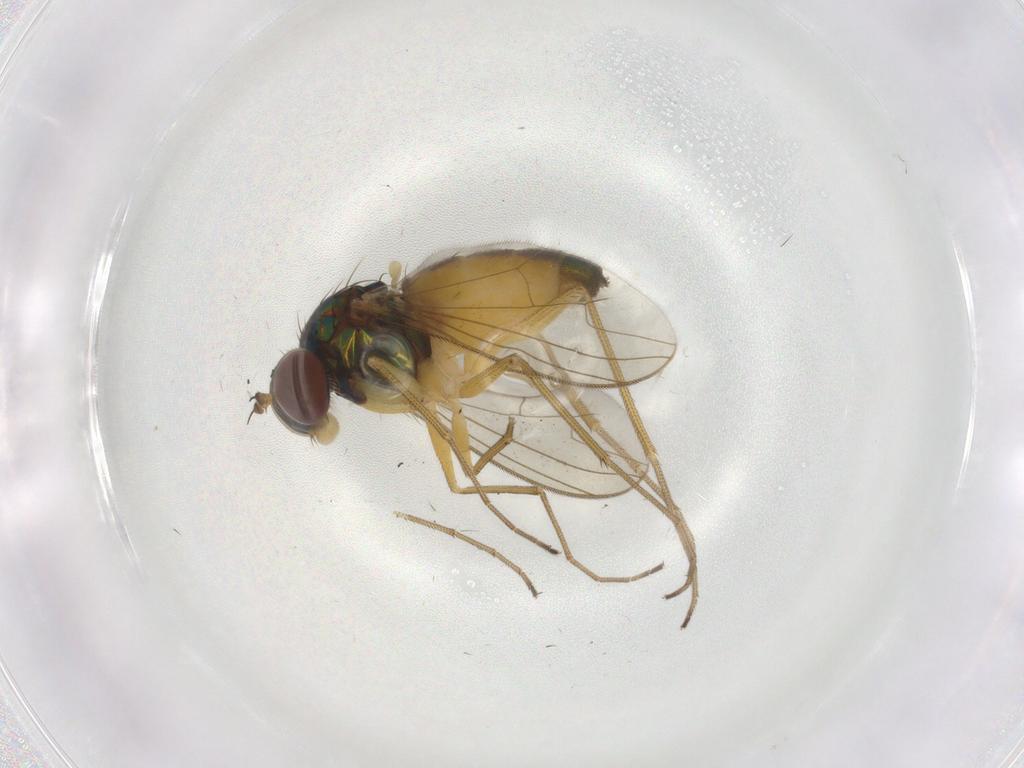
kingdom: Animalia
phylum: Arthropoda
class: Insecta
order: Diptera
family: Dolichopodidae
